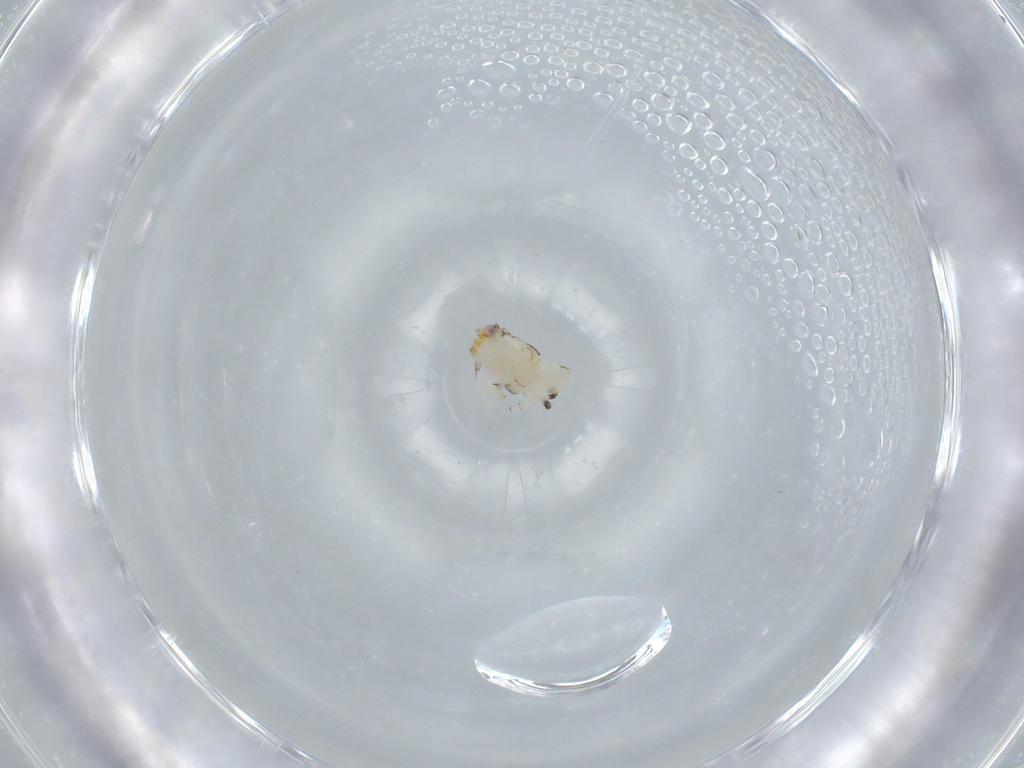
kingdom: Animalia
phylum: Arthropoda
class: Insecta
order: Hemiptera
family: Nogodinidae
